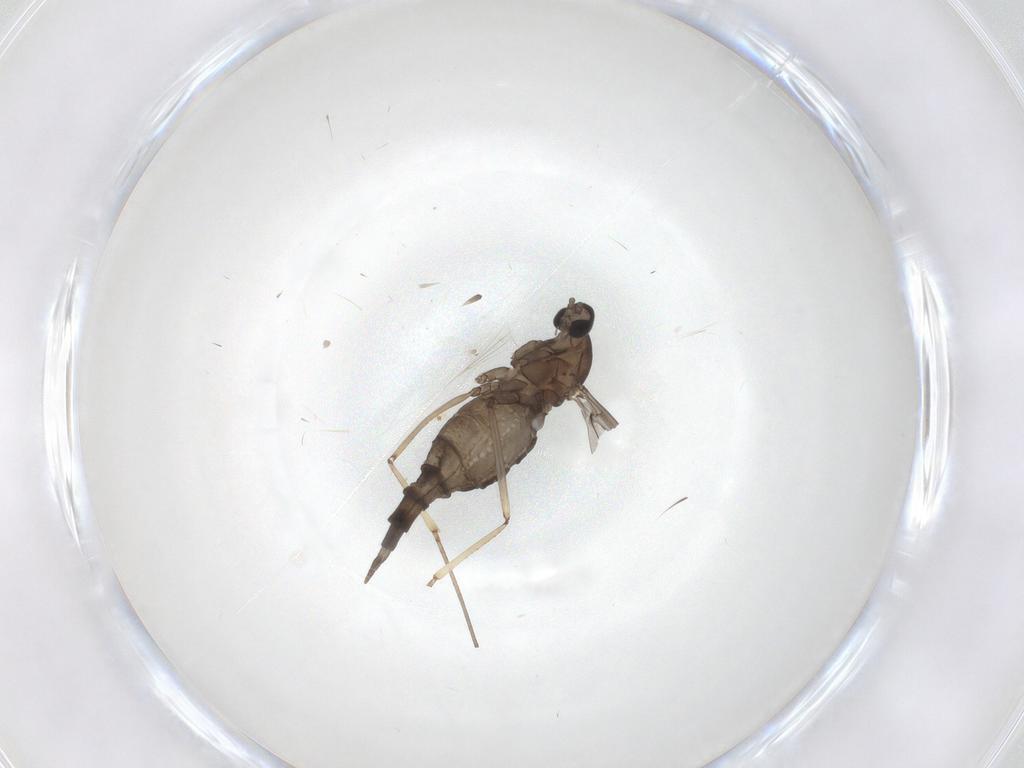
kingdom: Animalia
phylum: Arthropoda
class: Insecta
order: Diptera
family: Cecidomyiidae
